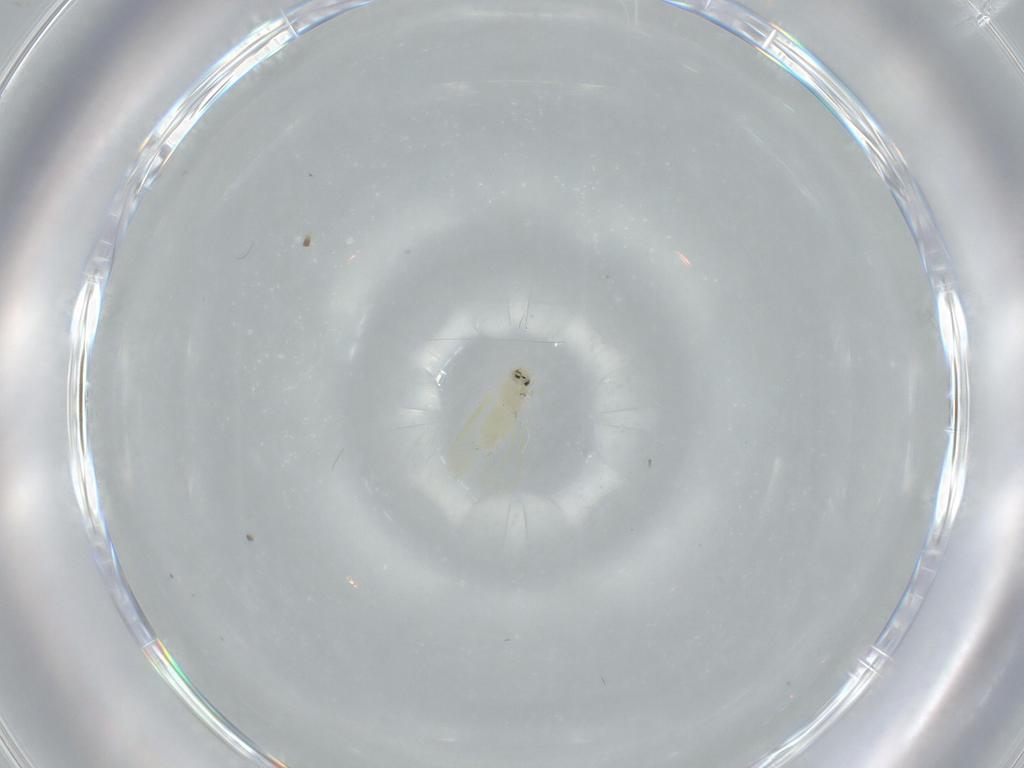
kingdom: Animalia
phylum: Arthropoda
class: Insecta
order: Hemiptera
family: Aleyrodidae
